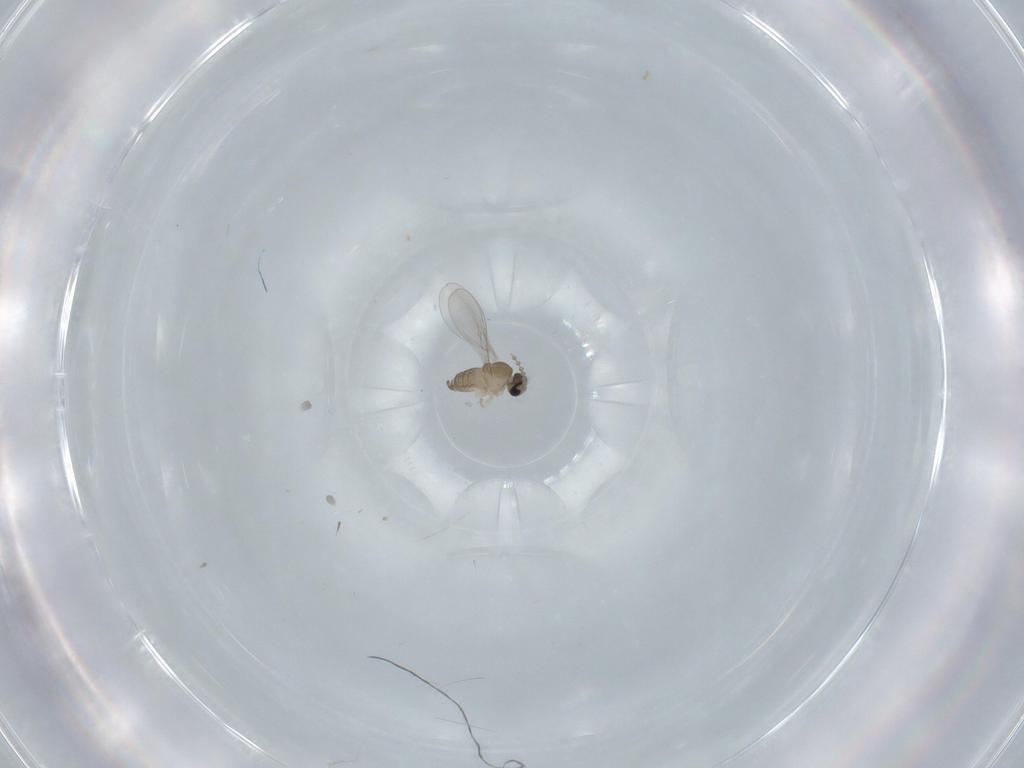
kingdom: Animalia
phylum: Arthropoda
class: Insecta
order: Diptera
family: Cecidomyiidae
